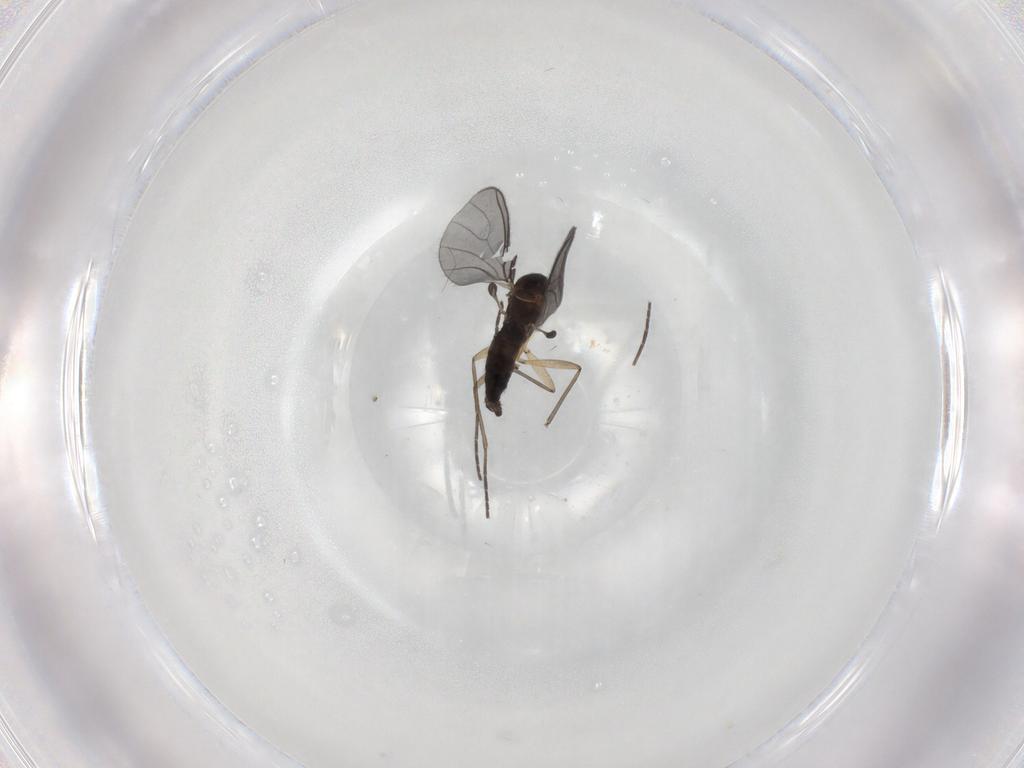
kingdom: Animalia
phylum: Arthropoda
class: Insecta
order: Diptera
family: Sciaridae
